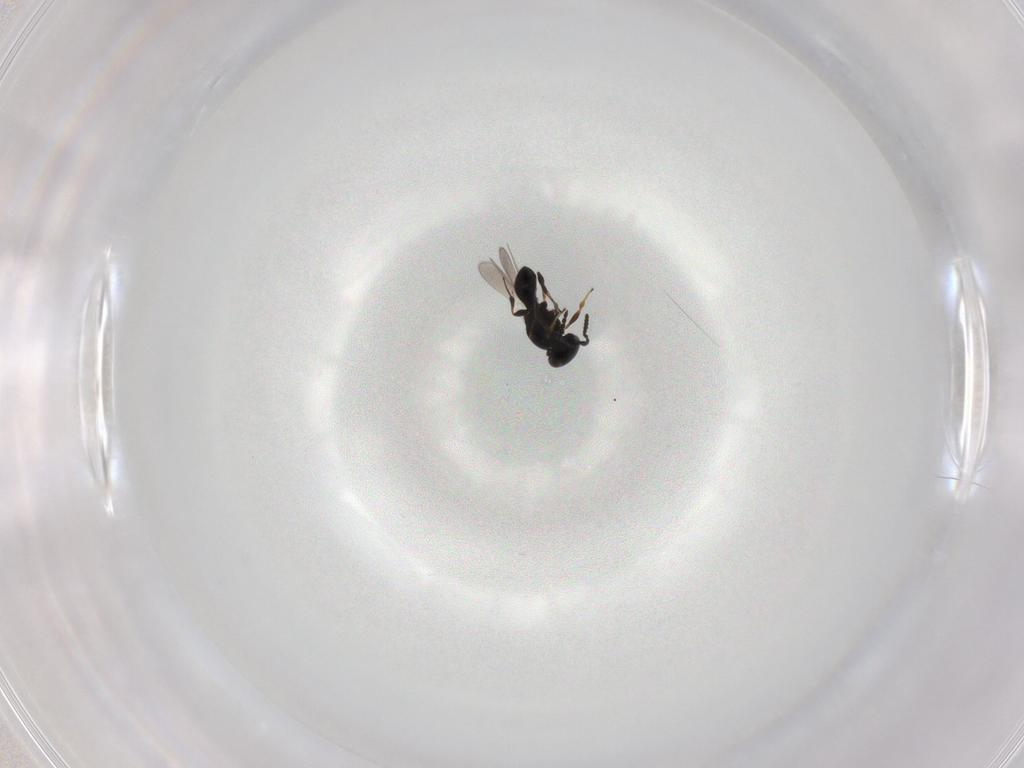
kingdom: Animalia
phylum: Arthropoda
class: Insecta
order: Hymenoptera
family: Platygastridae
